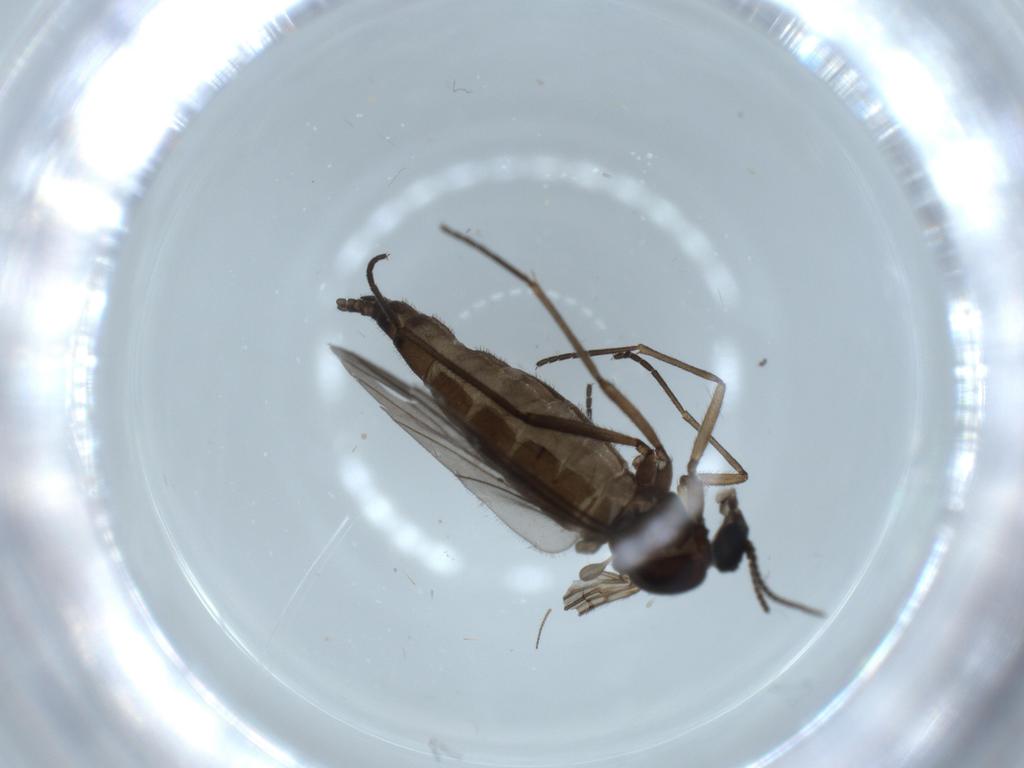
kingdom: Animalia
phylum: Arthropoda
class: Insecta
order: Diptera
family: Sciaridae
